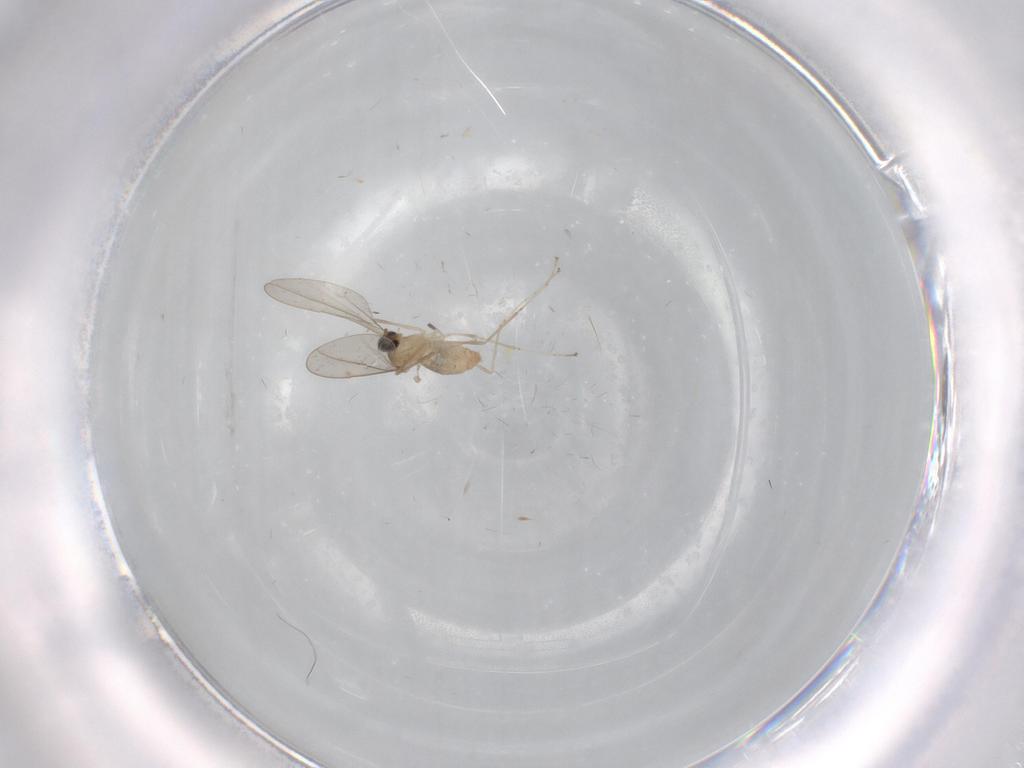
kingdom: Animalia
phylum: Arthropoda
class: Insecta
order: Diptera
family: Cecidomyiidae
